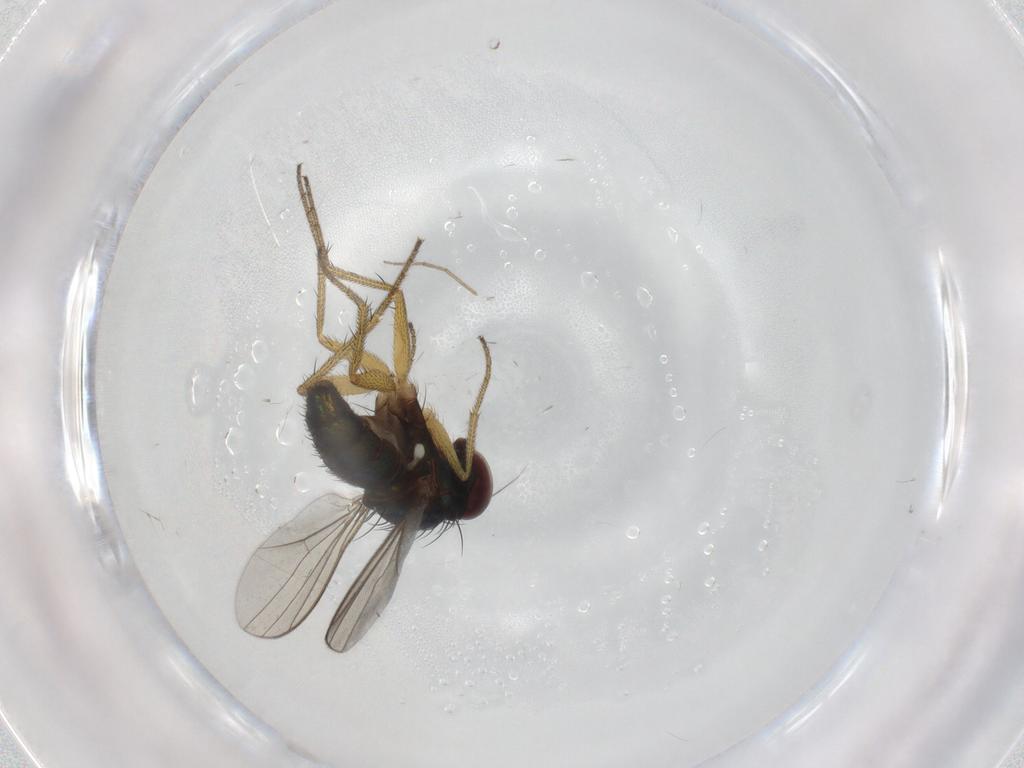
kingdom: Animalia
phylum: Arthropoda
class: Insecta
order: Diptera
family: Dolichopodidae
